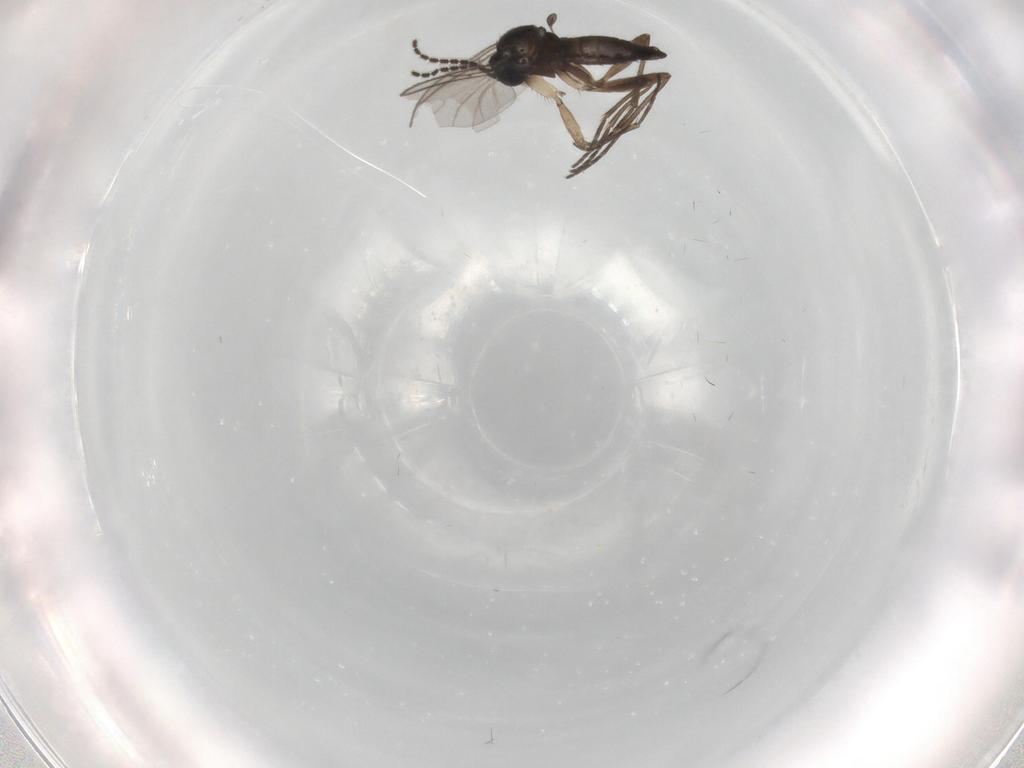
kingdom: Animalia
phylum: Arthropoda
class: Insecta
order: Diptera
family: Sciaridae
